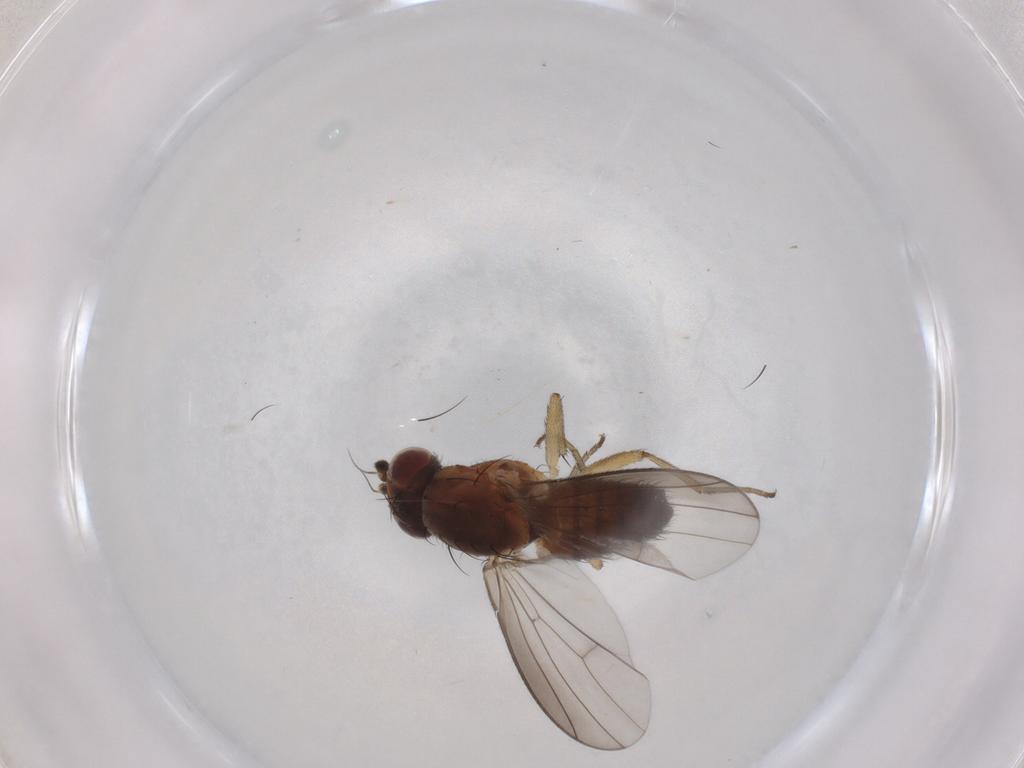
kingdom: Animalia
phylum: Arthropoda
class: Insecta
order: Diptera
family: Heleomyzidae
